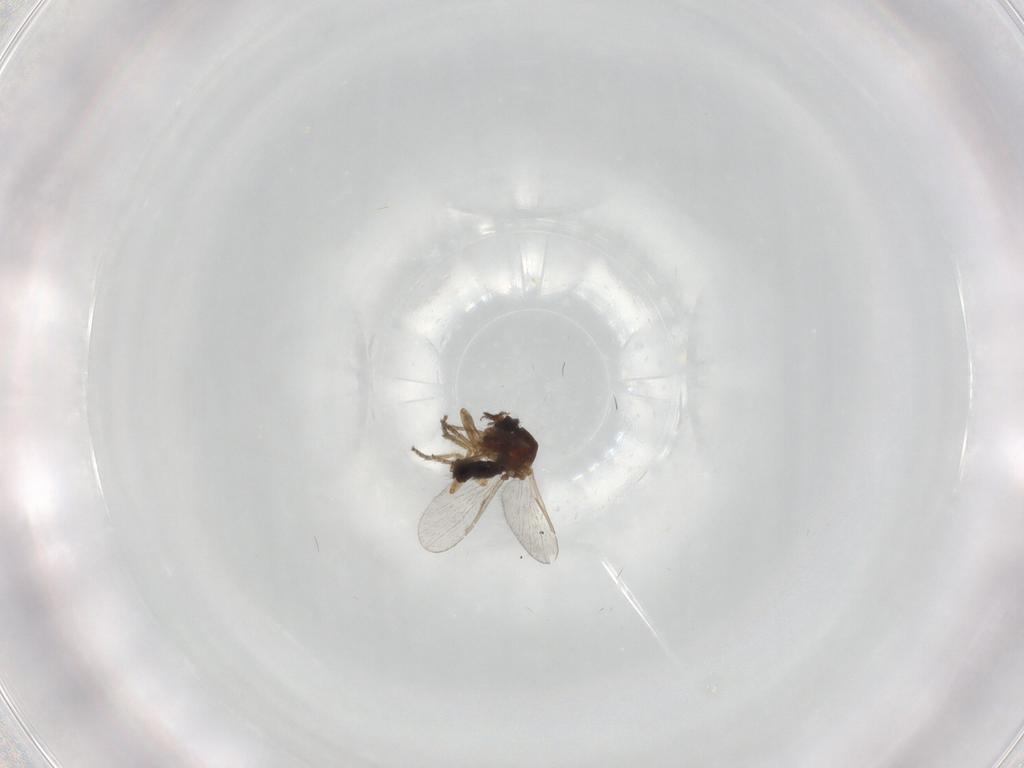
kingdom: Animalia
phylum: Arthropoda
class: Insecta
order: Diptera
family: Ceratopogonidae
